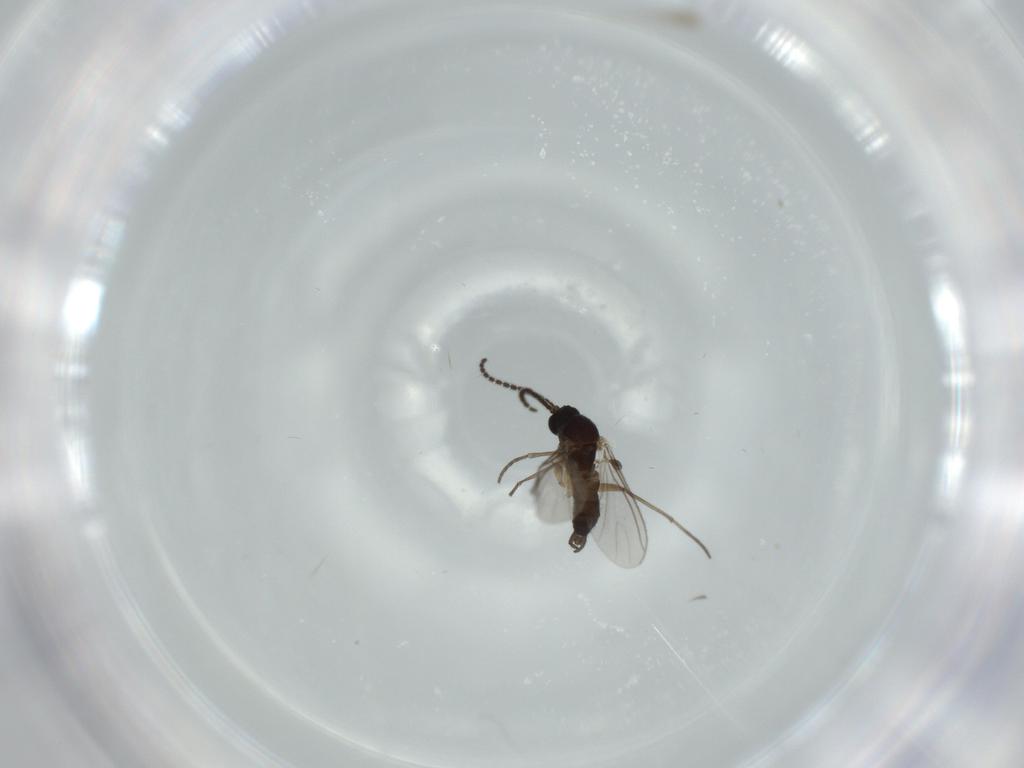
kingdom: Animalia
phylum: Arthropoda
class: Insecta
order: Diptera
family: Sciaridae
